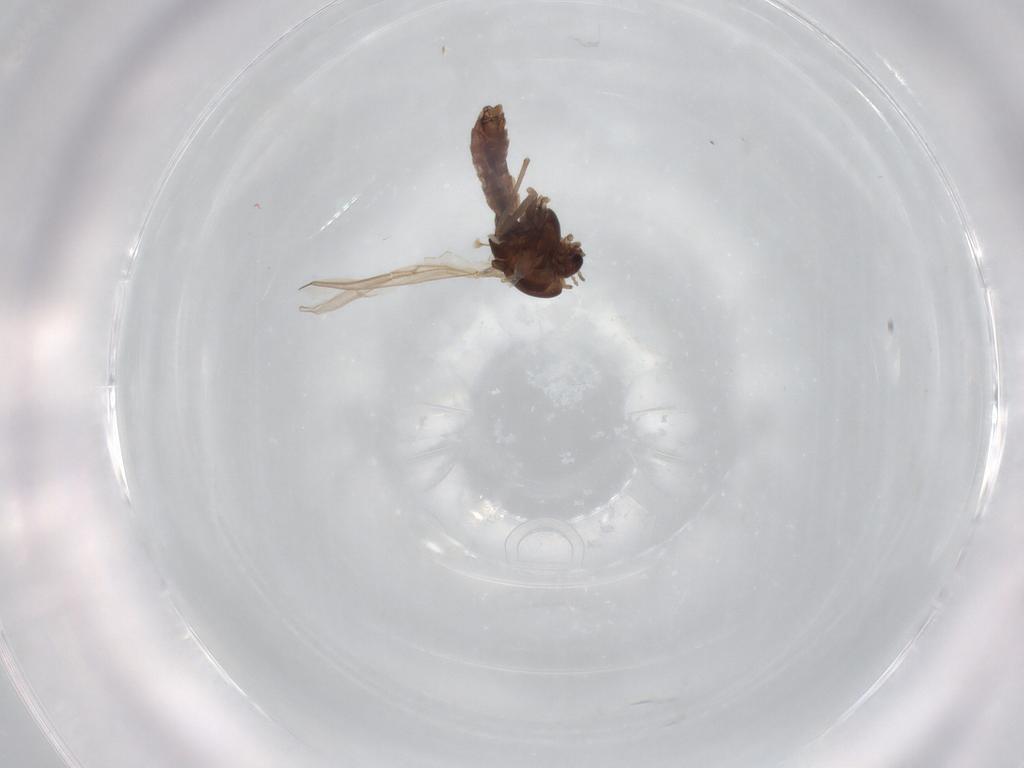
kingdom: Animalia
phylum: Arthropoda
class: Insecta
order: Diptera
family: Chironomidae
